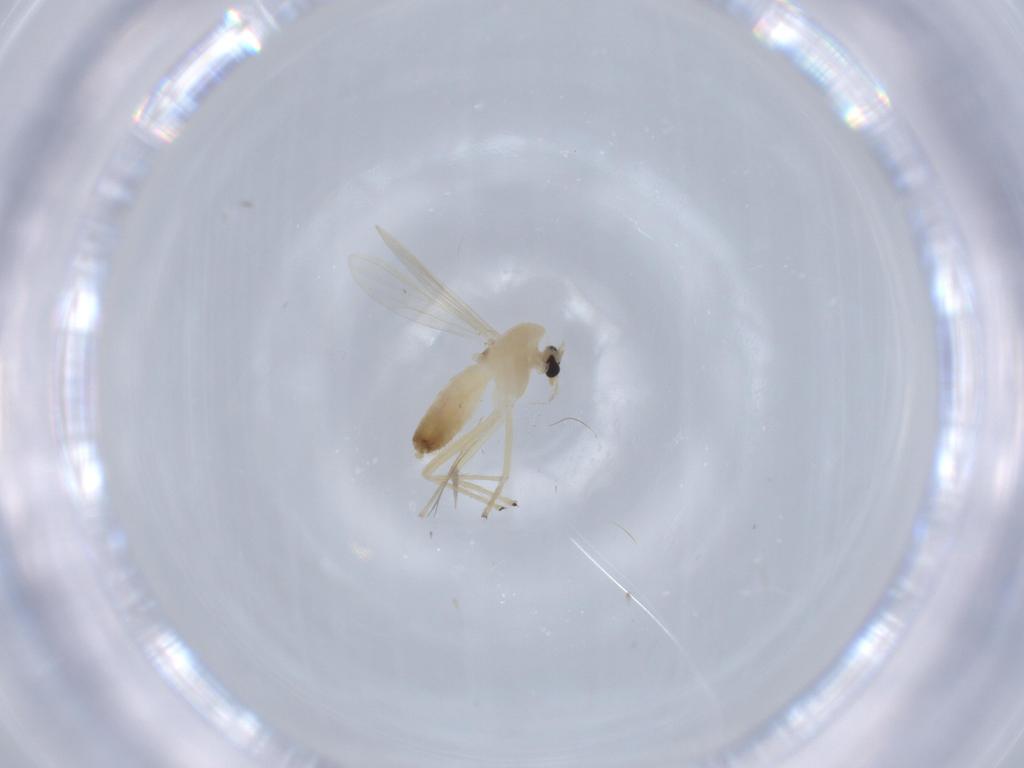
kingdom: Animalia
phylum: Arthropoda
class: Insecta
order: Diptera
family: Chironomidae
